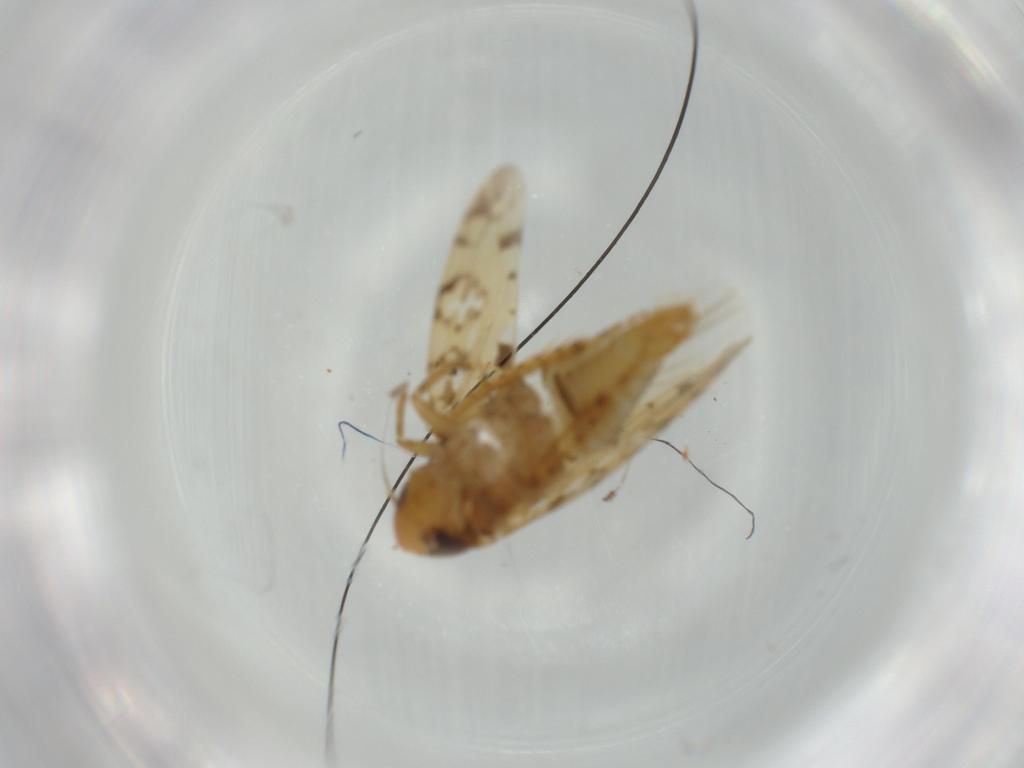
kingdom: Animalia
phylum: Arthropoda
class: Insecta
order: Hemiptera
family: Cicadellidae
